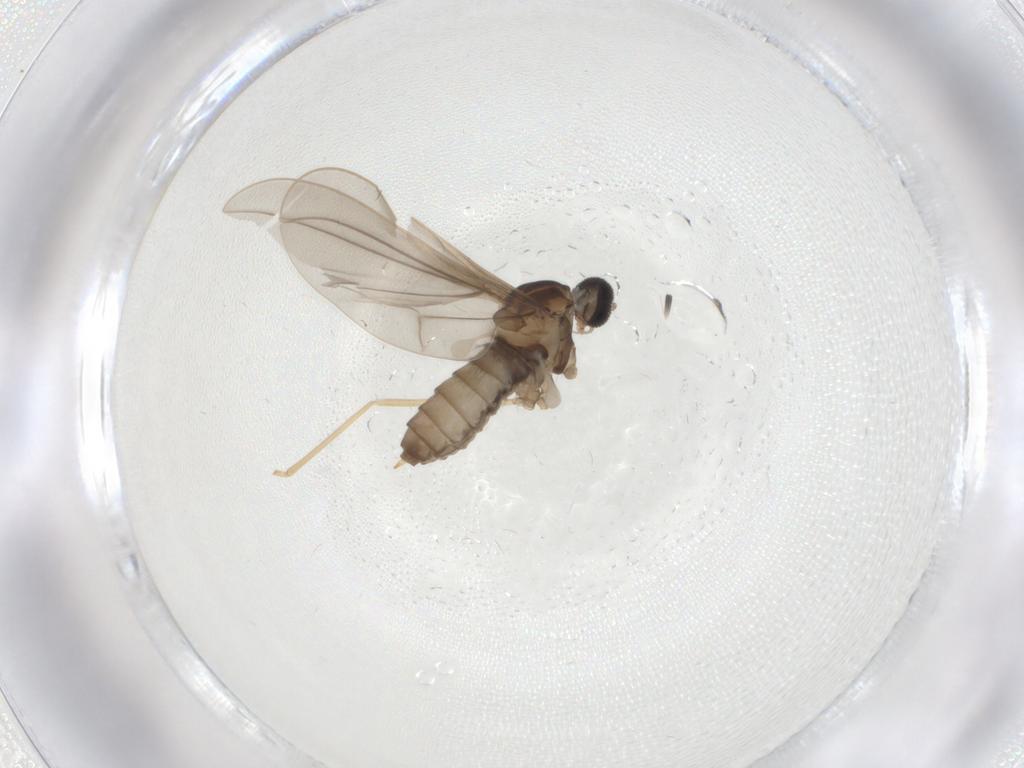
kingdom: Animalia
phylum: Arthropoda
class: Insecta
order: Diptera
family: Cecidomyiidae
